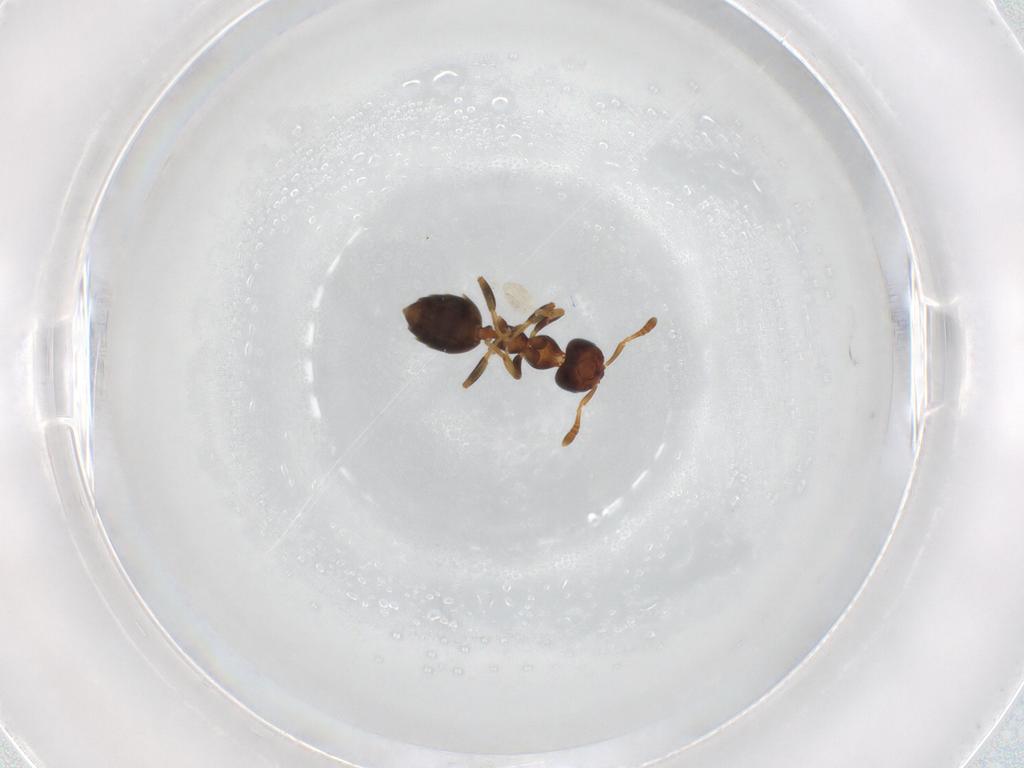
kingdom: Animalia
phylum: Arthropoda
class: Insecta
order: Hymenoptera
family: Formicidae
